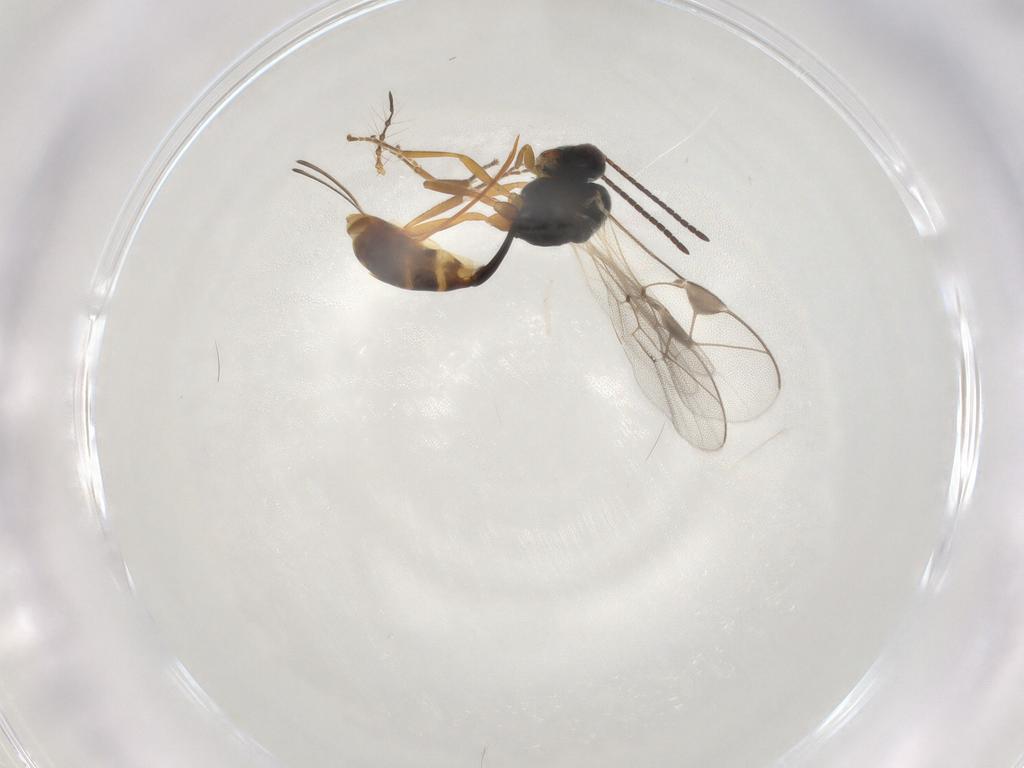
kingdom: Animalia
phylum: Arthropoda
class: Insecta
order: Hymenoptera
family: Ichneumonidae
